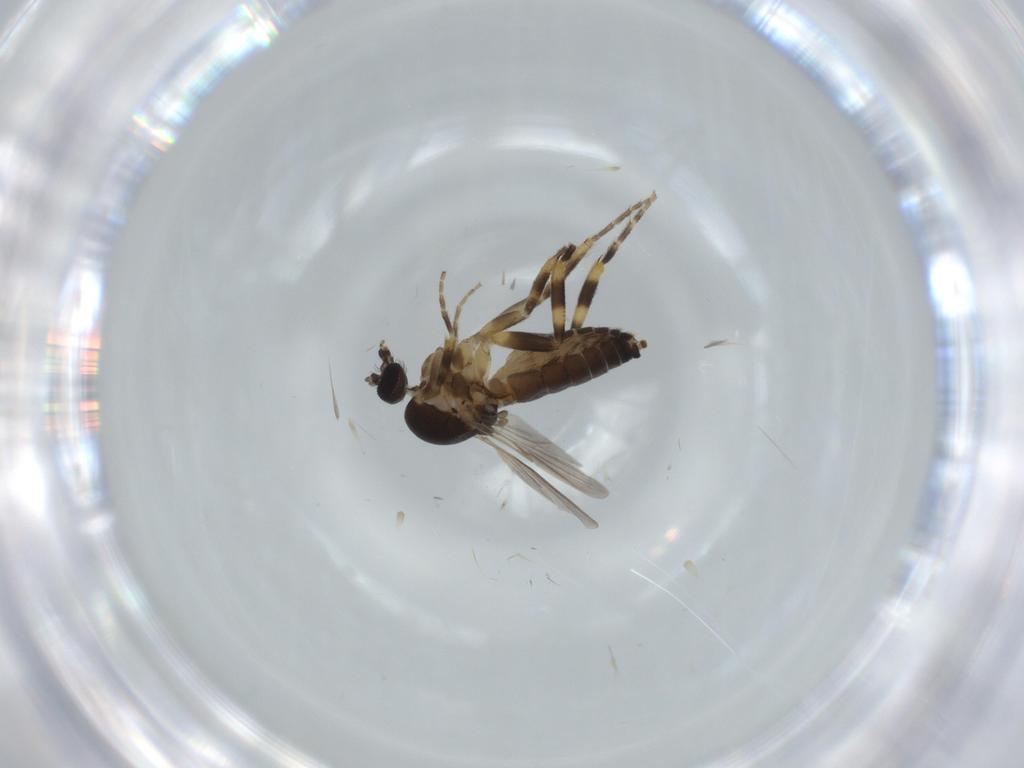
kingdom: Animalia
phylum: Arthropoda
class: Insecta
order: Diptera
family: Ceratopogonidae
